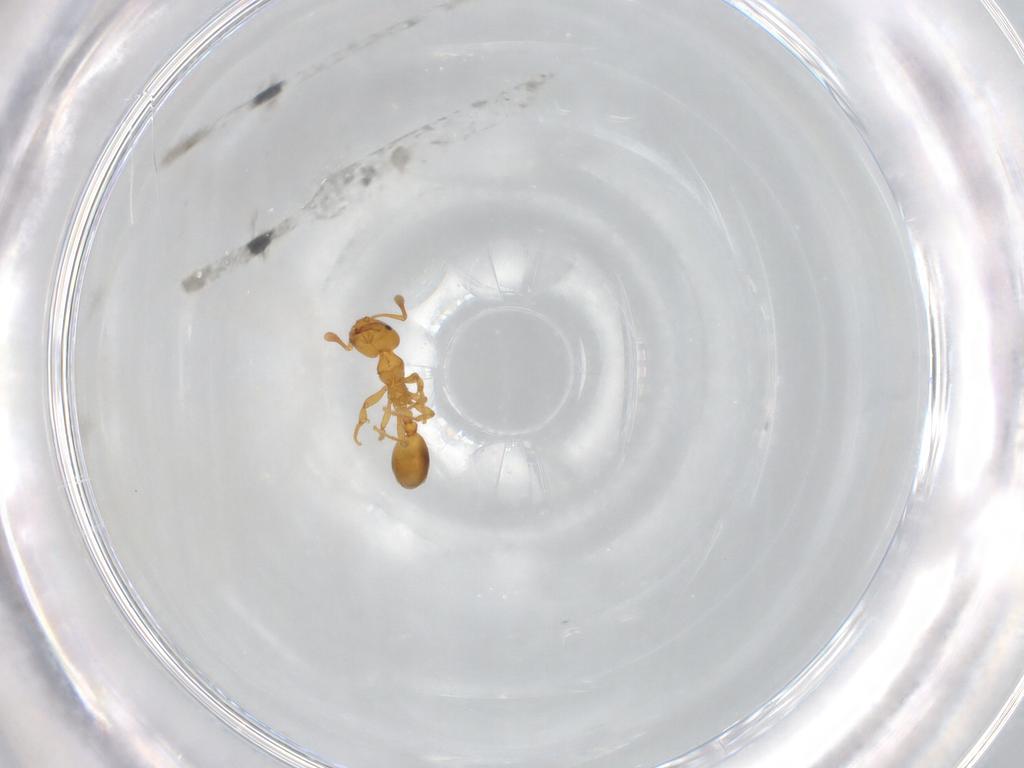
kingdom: Animalia
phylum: Arthropoda
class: Insecta
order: Hymenoptera
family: Formicidae
